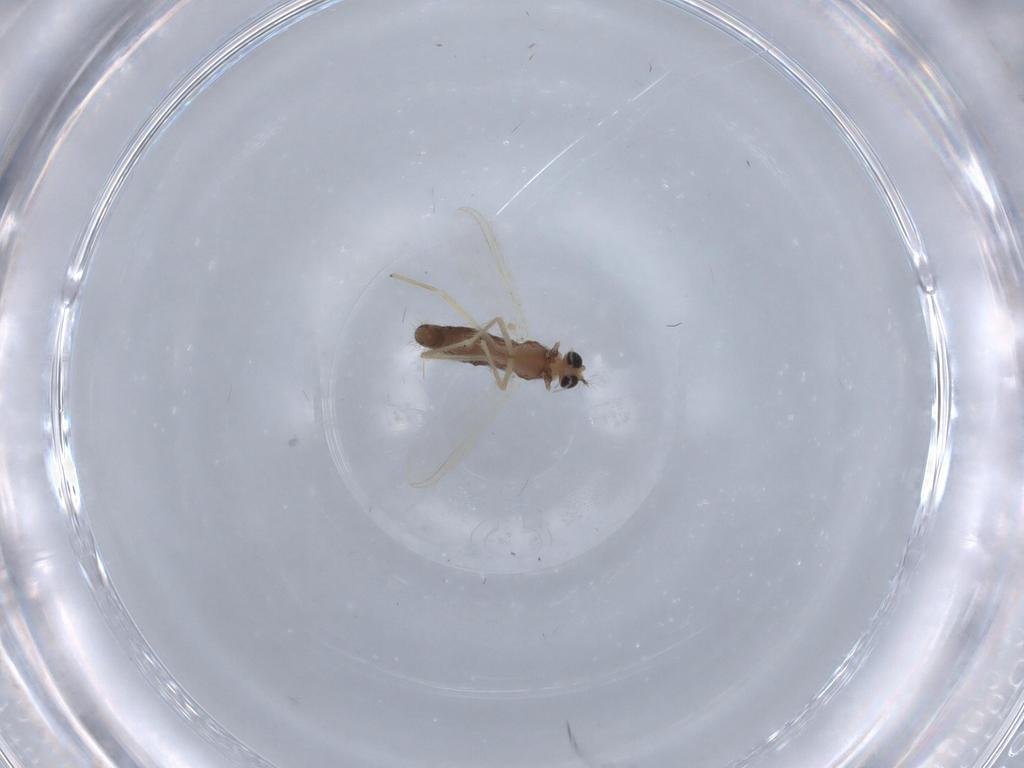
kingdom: Animalia
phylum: Arthropoda
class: Insecta
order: Diptera
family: Chironomidae
